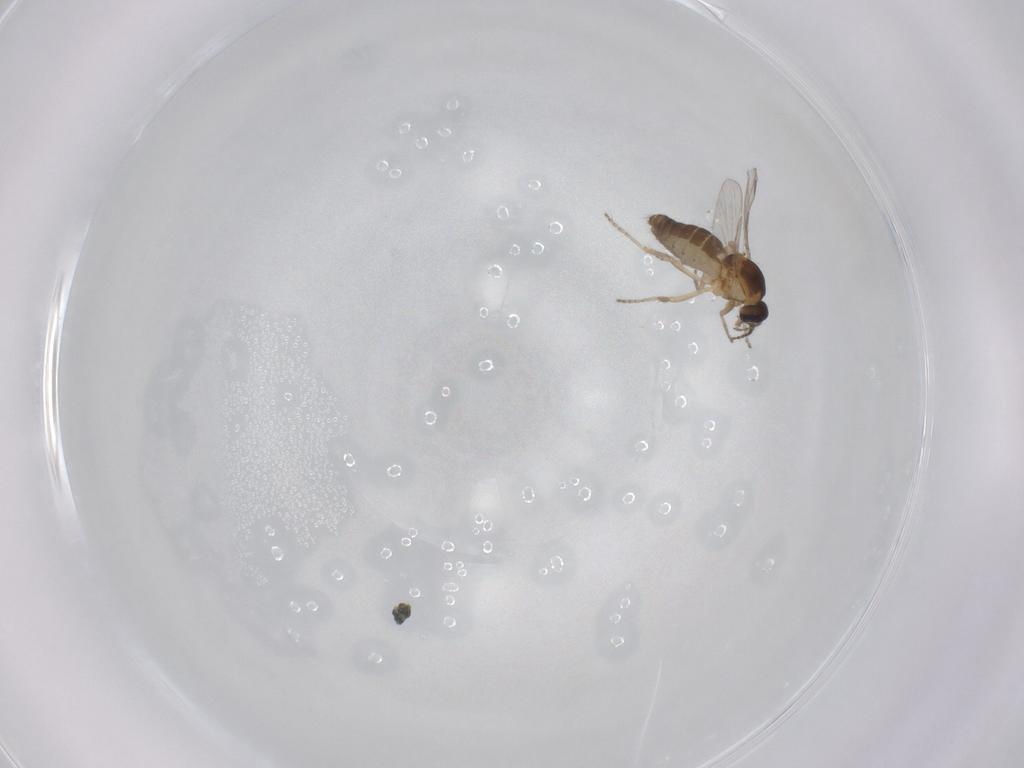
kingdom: Animalia
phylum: Arthropoda
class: Insecta
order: Diptera
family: Ceratopogonidae
